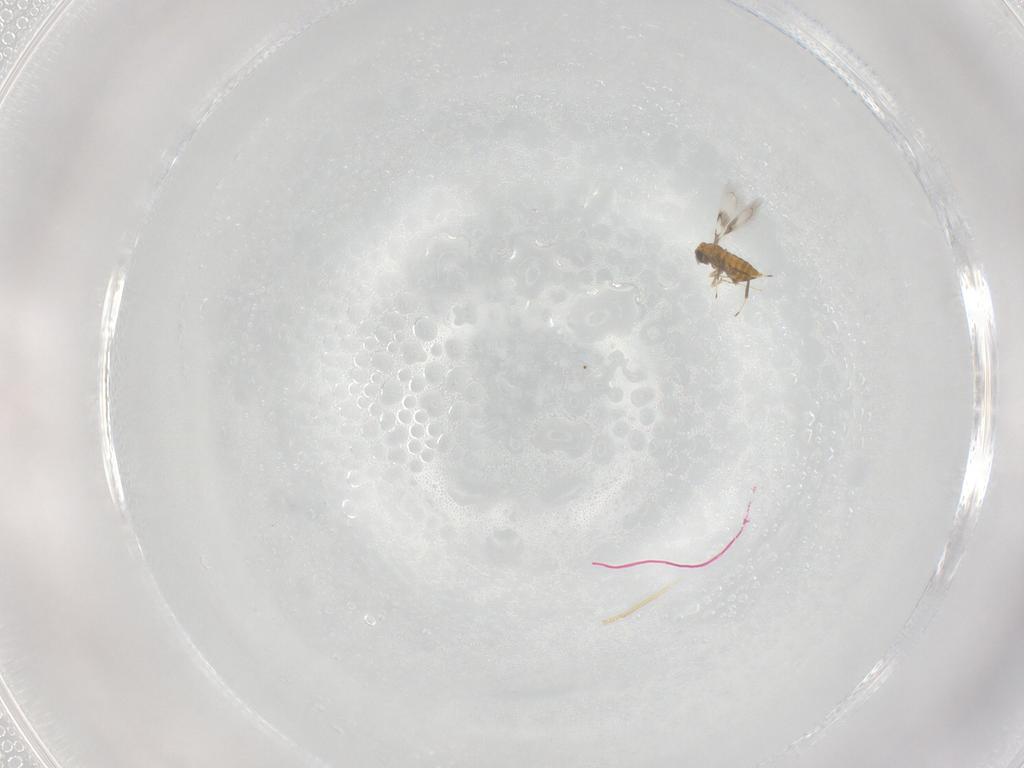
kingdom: Animalia
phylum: Arthropoda
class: Insecta
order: Hymenoptera
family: Trichogrammatidae
